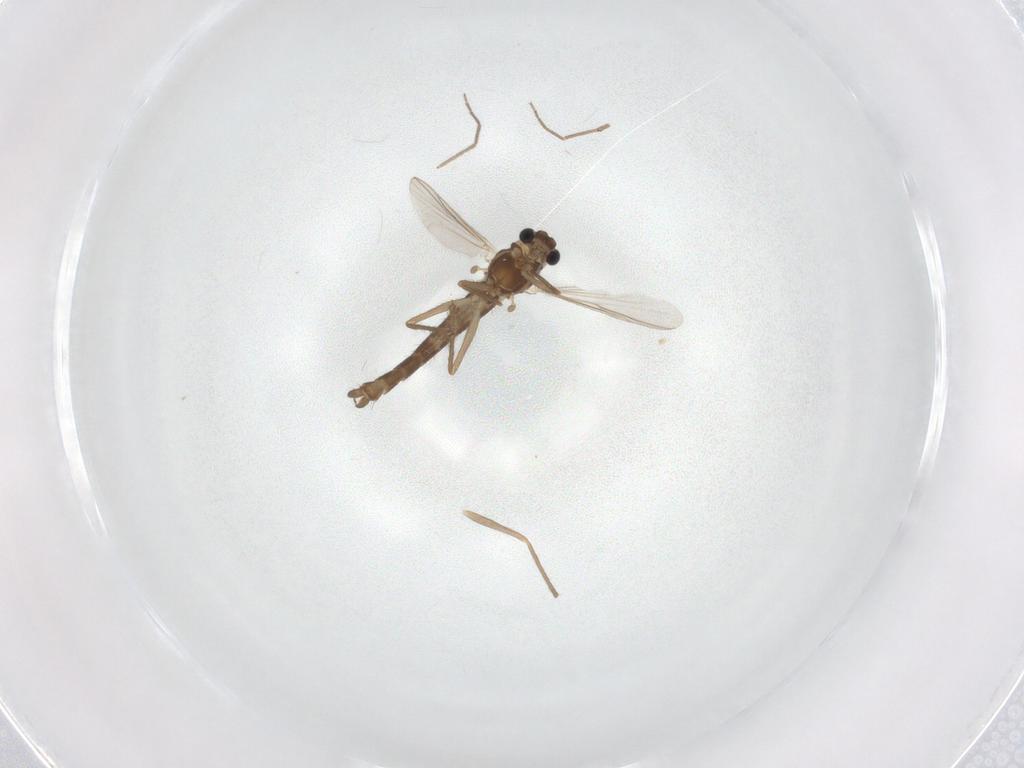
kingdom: Animalia
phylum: Arthropoda
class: Insecta
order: Diptera
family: Chironomidae
